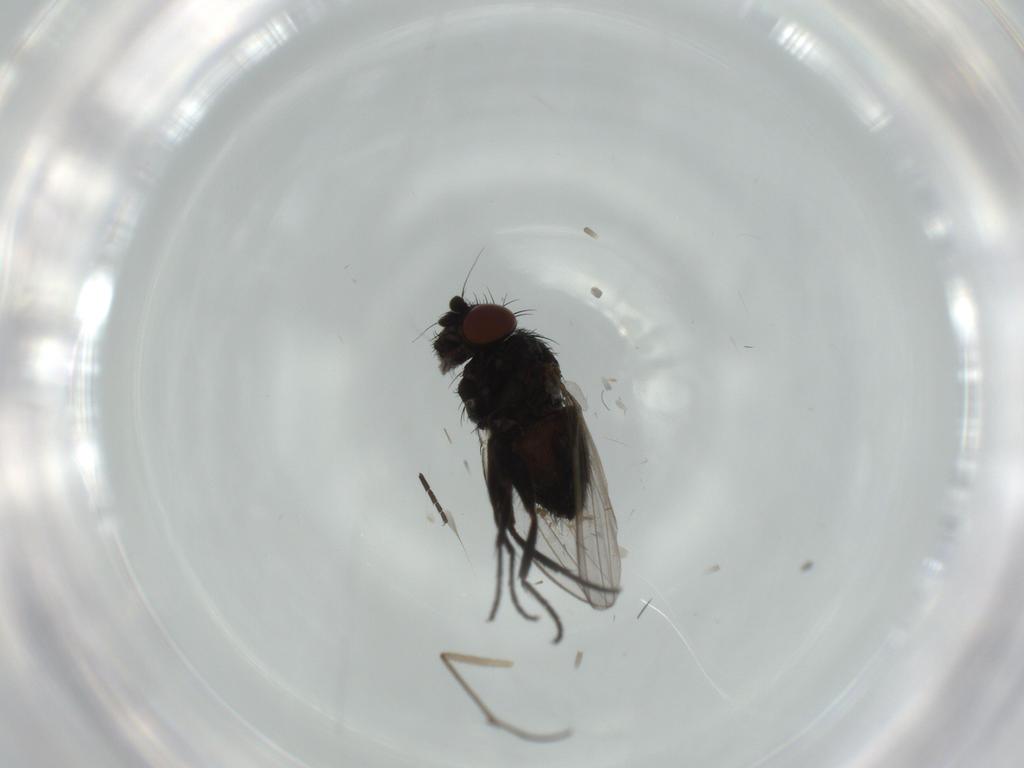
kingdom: Animalia
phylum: Arthropoda
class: Insecta
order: Diptera
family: Milichiidae
